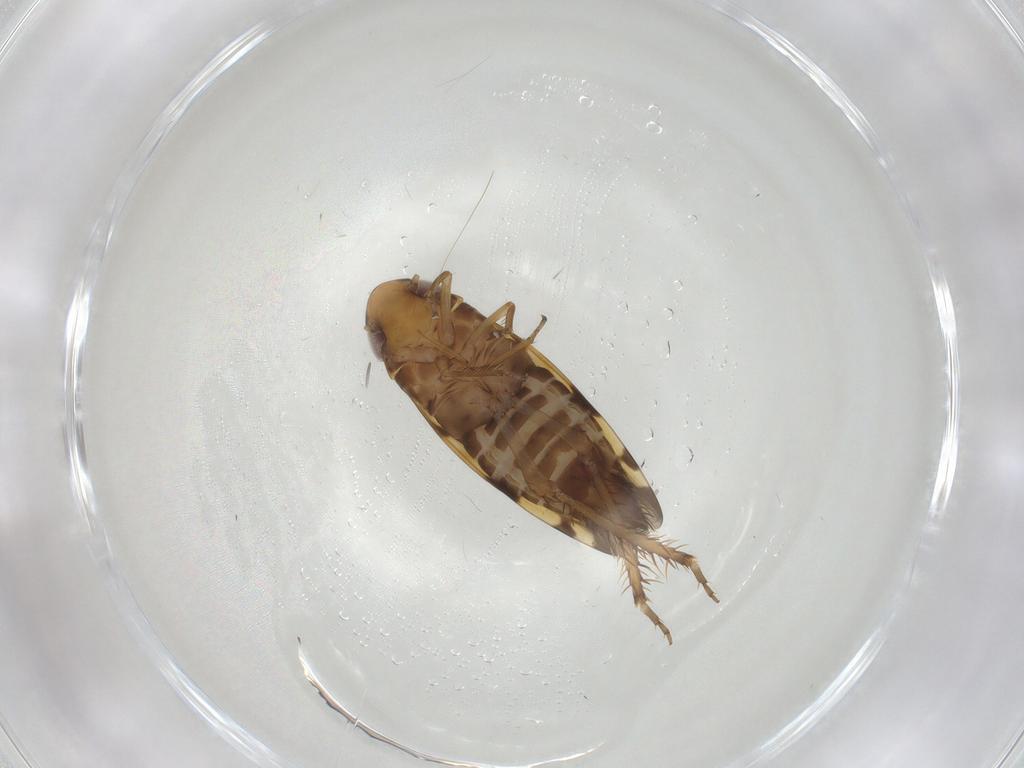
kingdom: Animalia
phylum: Arthropoda
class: Insecta
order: Hemiptera
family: Cicadellidae
